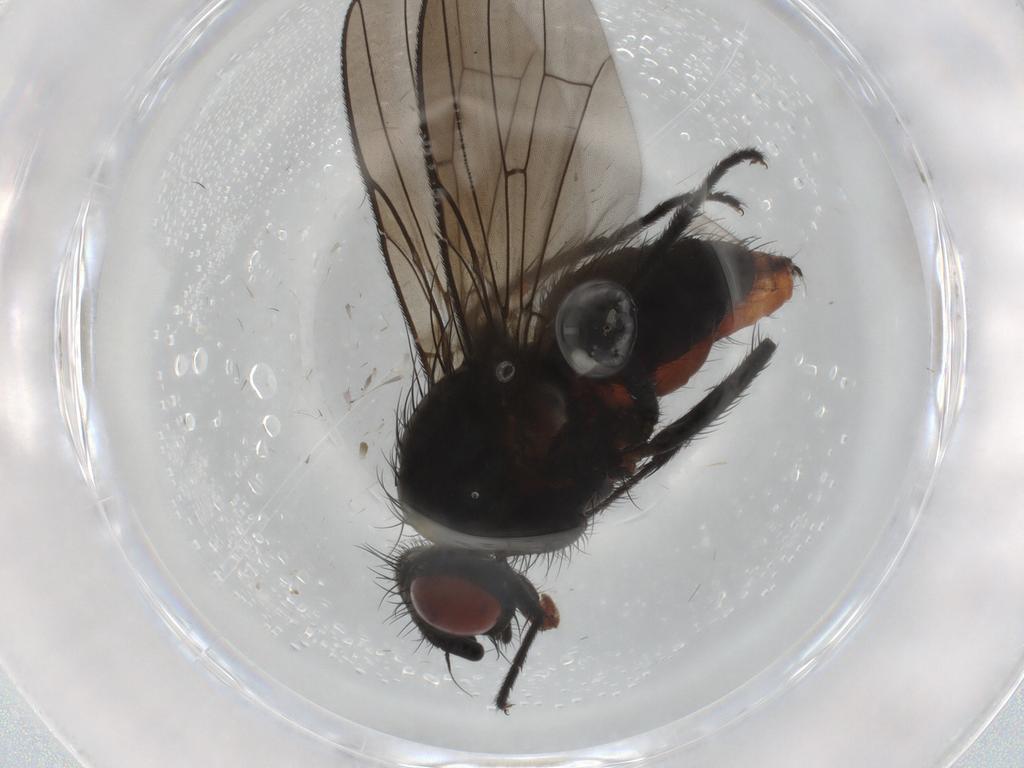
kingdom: Animalia
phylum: Arthropoda
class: Insecta
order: Diptera
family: Anthomyiidae
